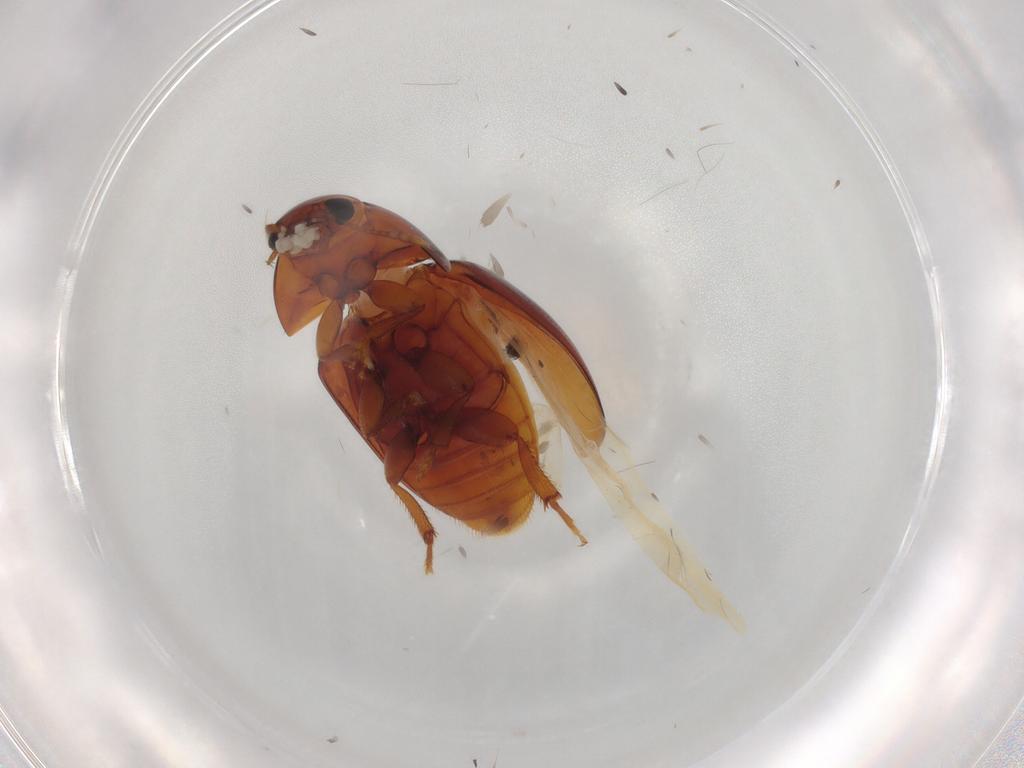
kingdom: Animalia
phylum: Arthropoda
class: Insecta
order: Coleoptera
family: Phalacridae
